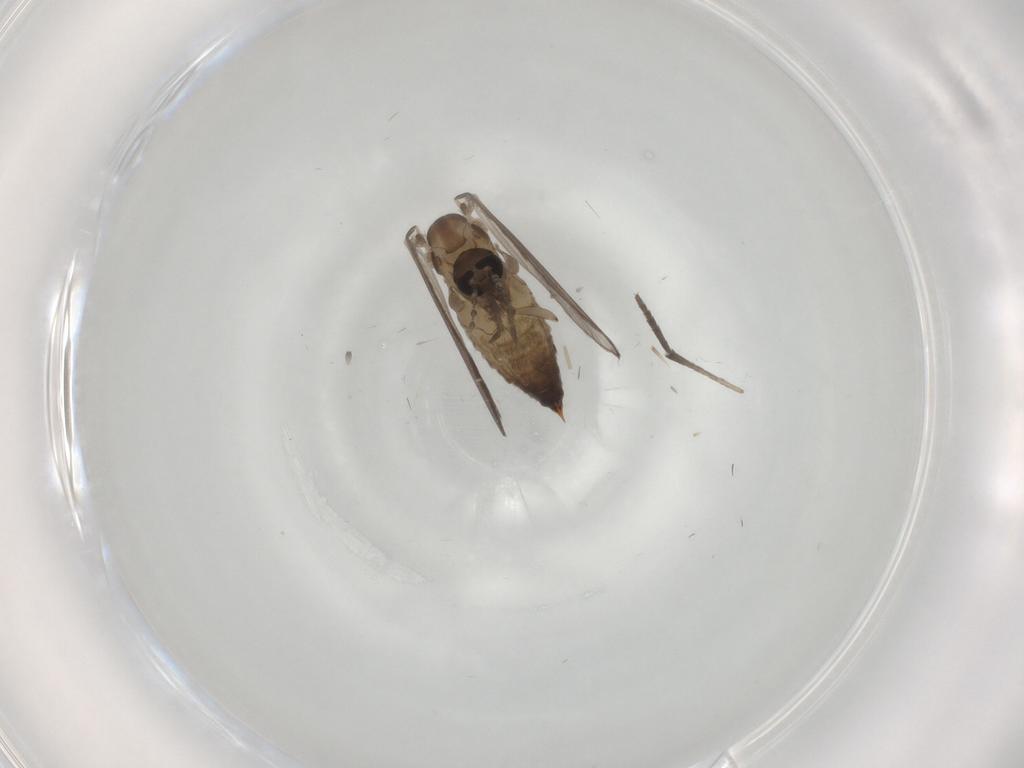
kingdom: Animalia
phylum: Arthropoda
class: Insecta
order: Diptera
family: Psychodidae
